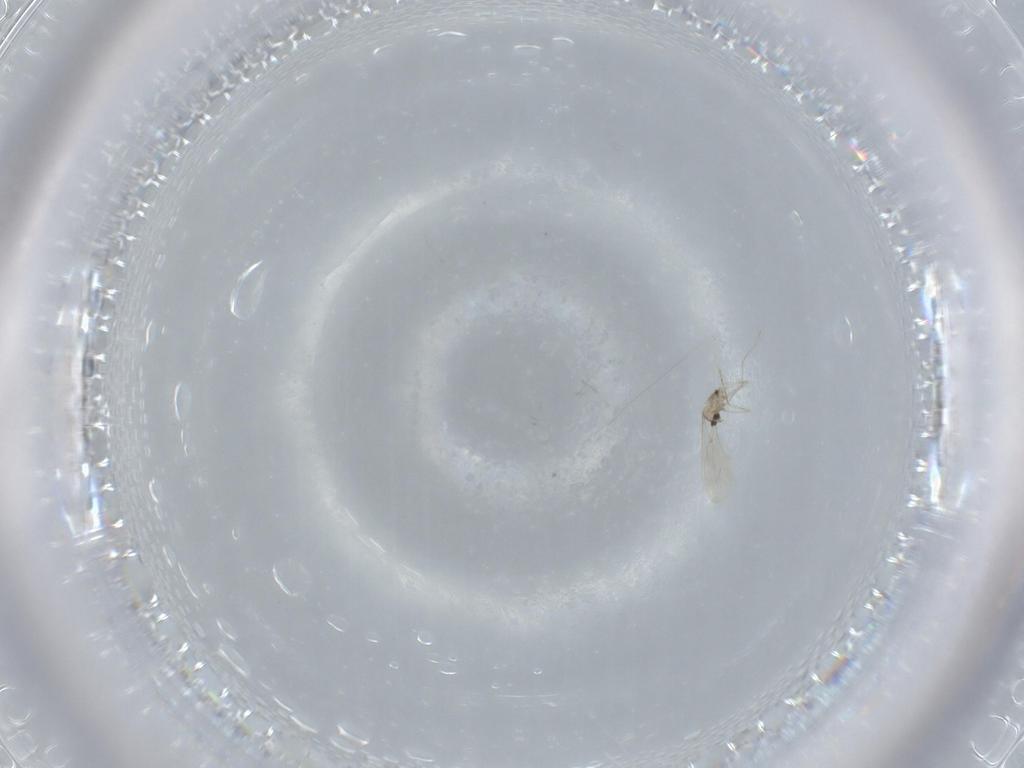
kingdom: Animalia
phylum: Arthropoda
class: Insecta
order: Diptera
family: Cecidomyiidae
